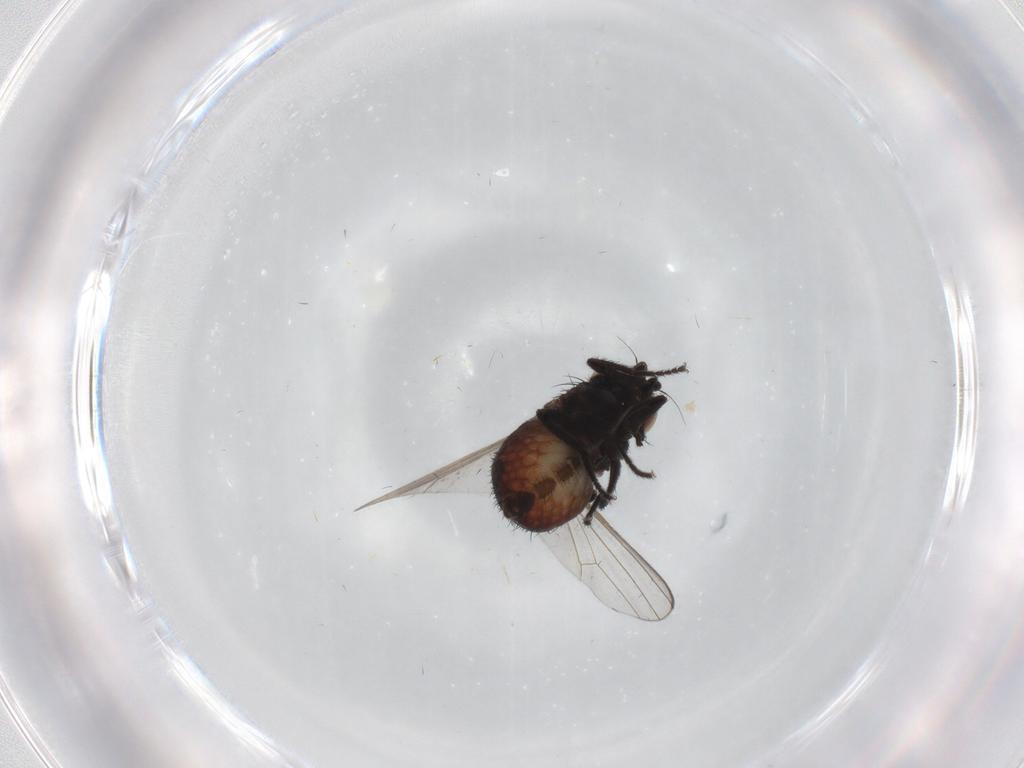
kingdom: Animalia
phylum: Arthropoda
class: Insecta
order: Diptera
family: Milichiidae
